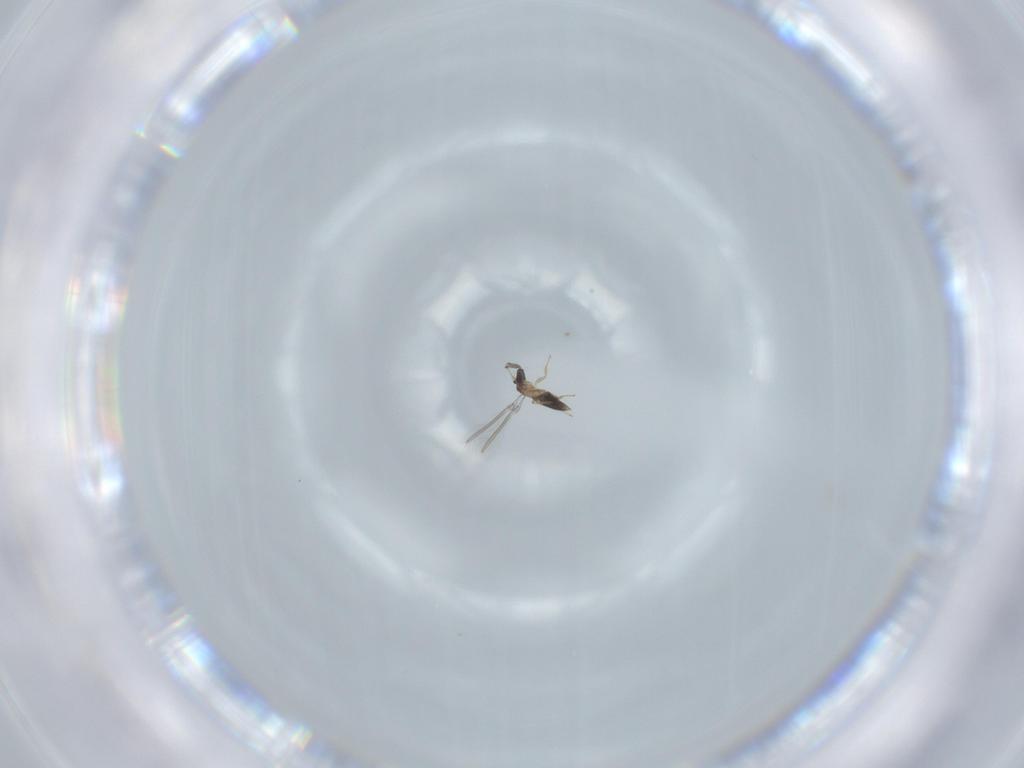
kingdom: Animalia
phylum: Arthropoda
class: Insecta
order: Hymenoptera
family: Mymaridae
